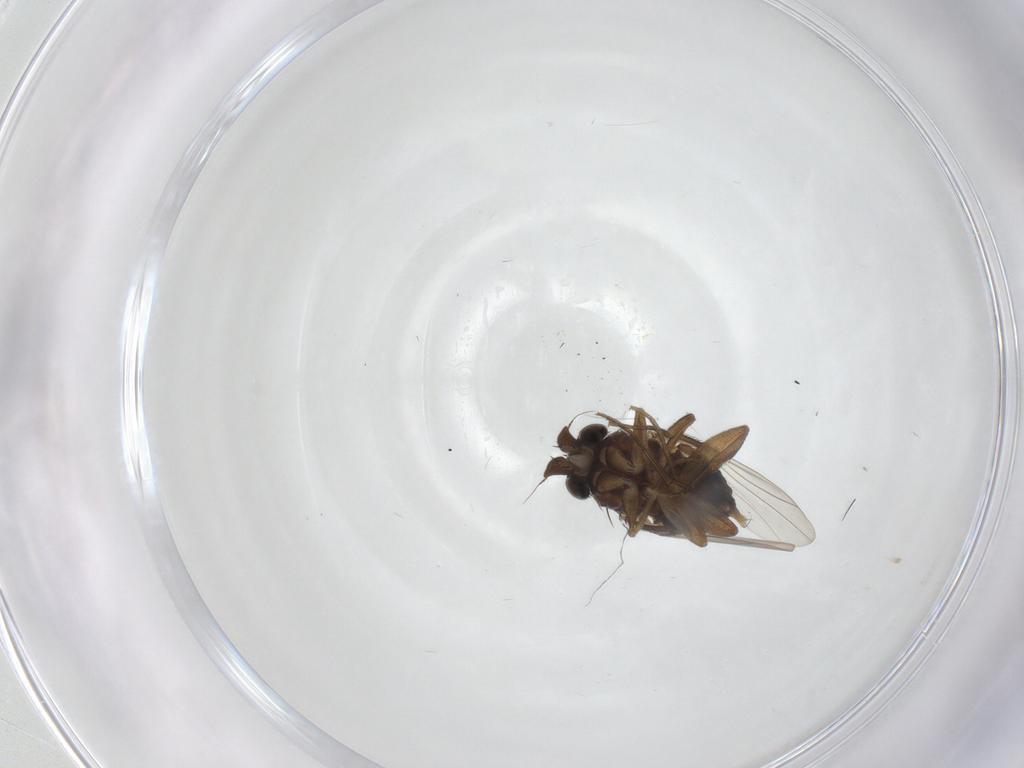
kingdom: Animalia
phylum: Arthropoda
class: Insecta
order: Diptera
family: Phoridae
